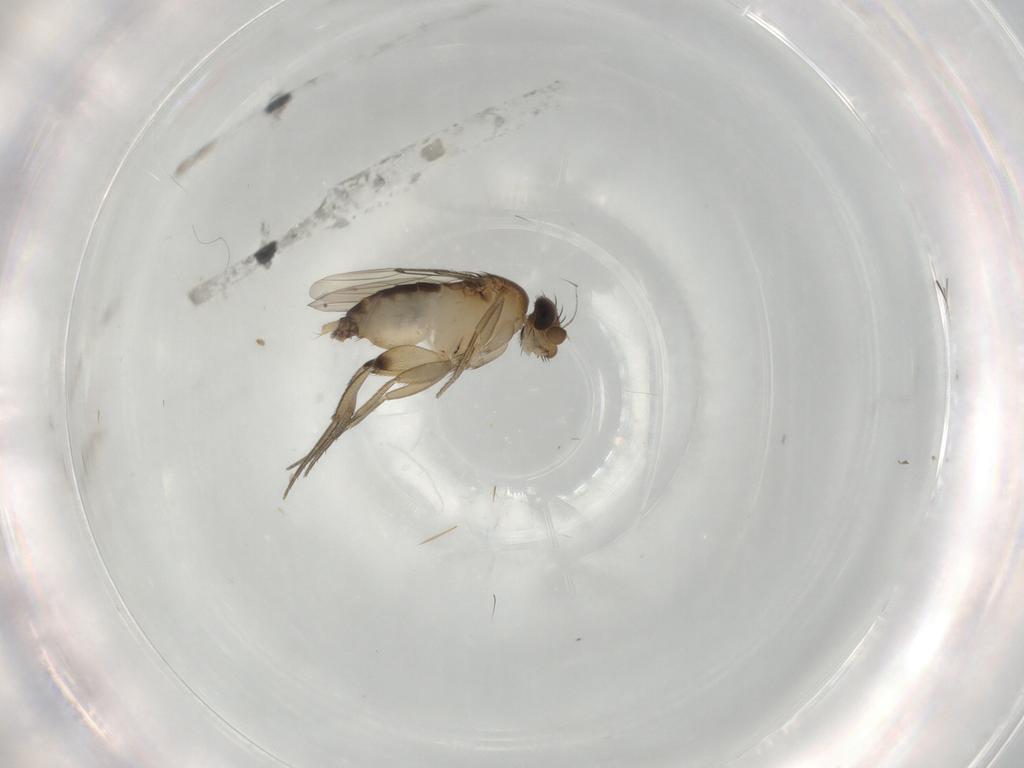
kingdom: Animalia
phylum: Arthropoda
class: Insecta
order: Diptera
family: Phoridae
